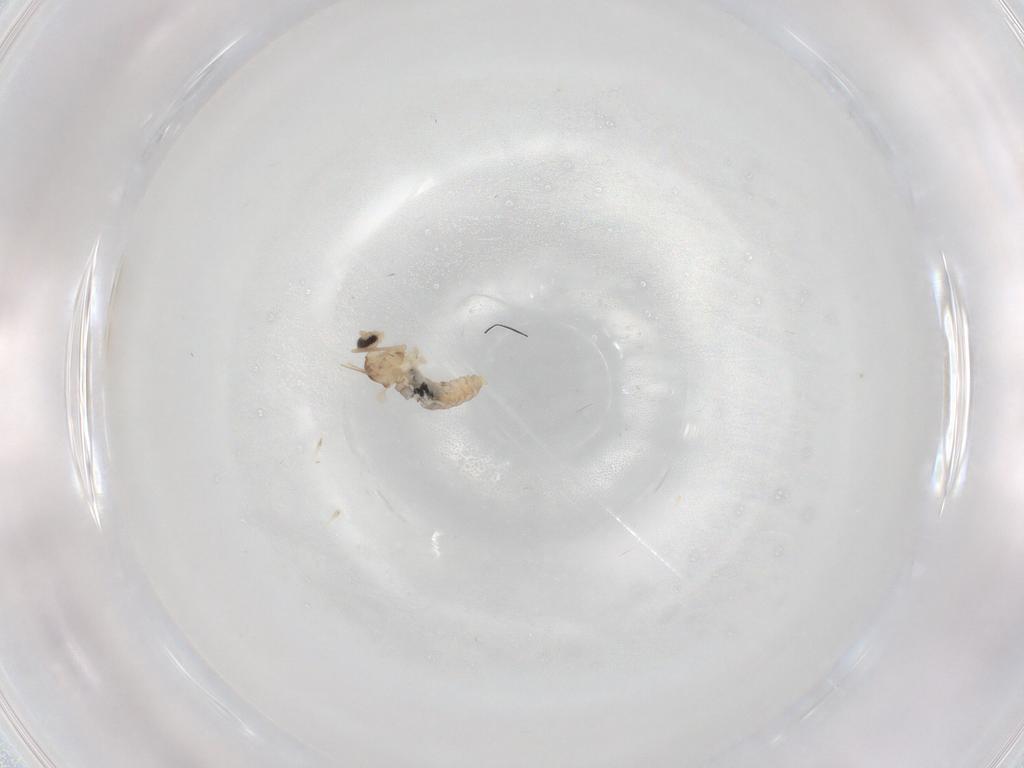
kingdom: Animalia
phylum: Arthropoda
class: Insecta
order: Diptera
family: Cecidomyiidae
